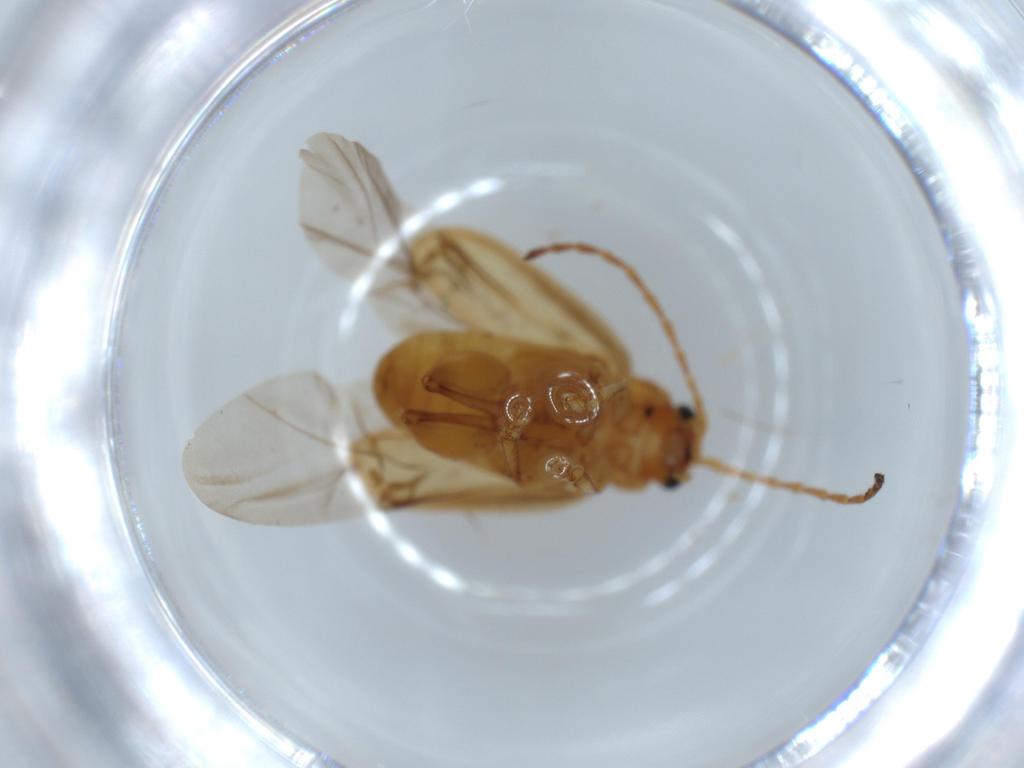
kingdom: Animalia
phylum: Arthropoda
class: Insecta
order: Coleoptera
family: Chrysomelidae
